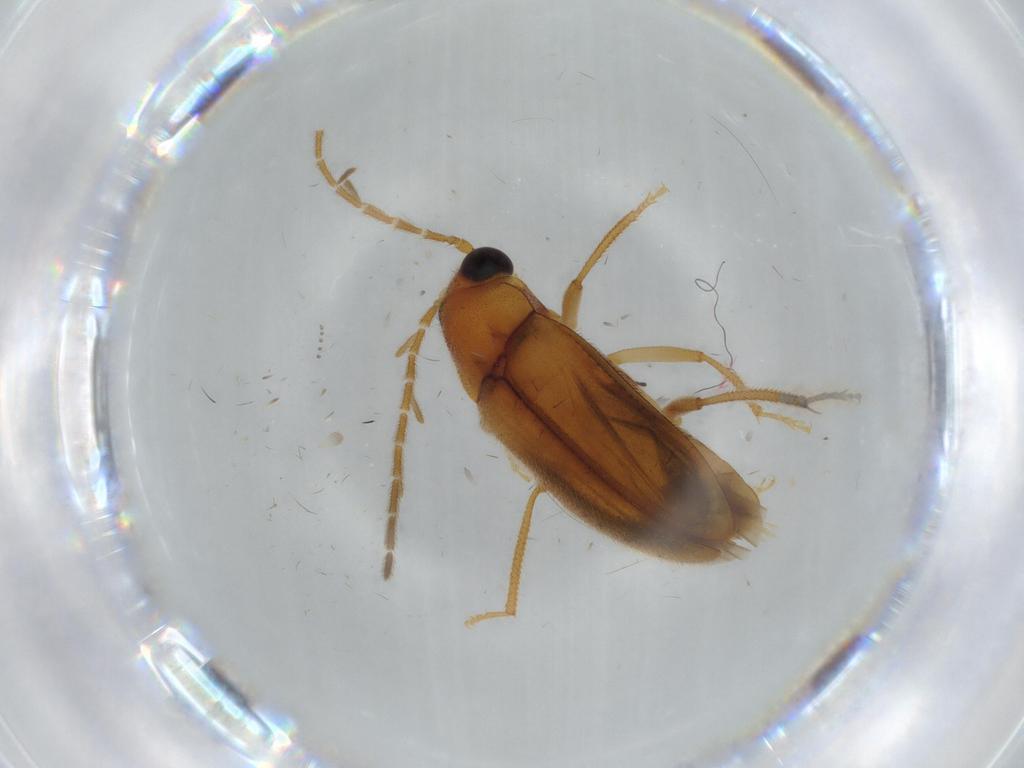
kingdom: Animalia
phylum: Arthropoda
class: Insecta
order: Coleoptera
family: Ptilodactylidae
